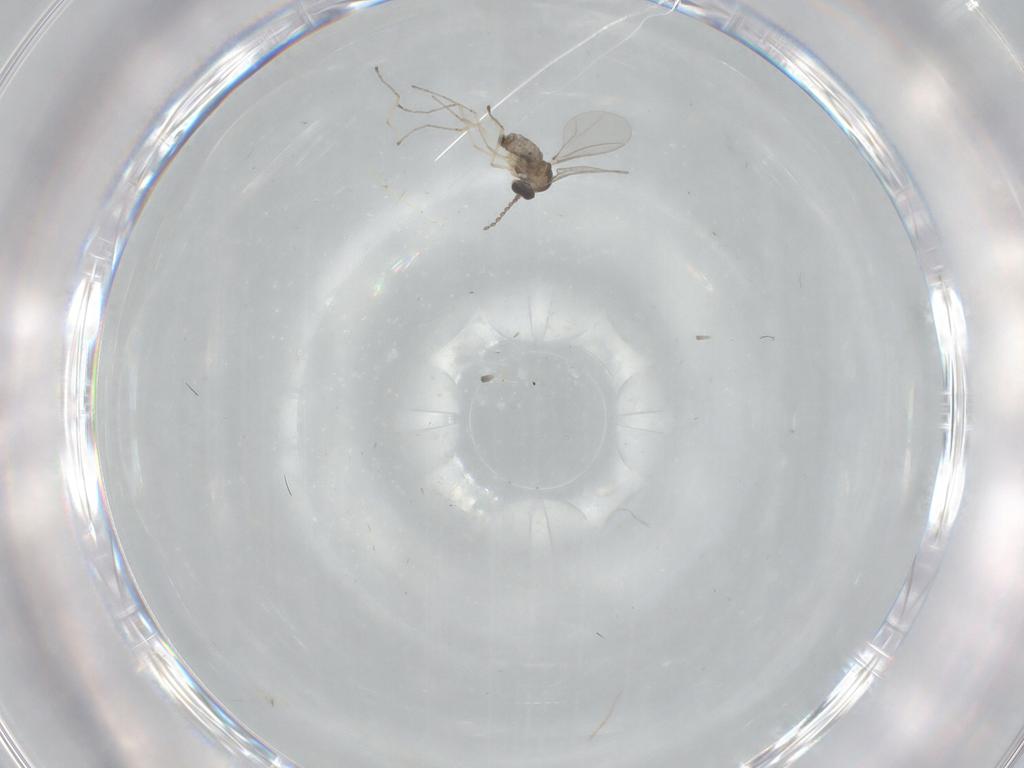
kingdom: Animalia
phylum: Arthropoda
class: Insecta
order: Diptera
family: Cecidomyiidae
